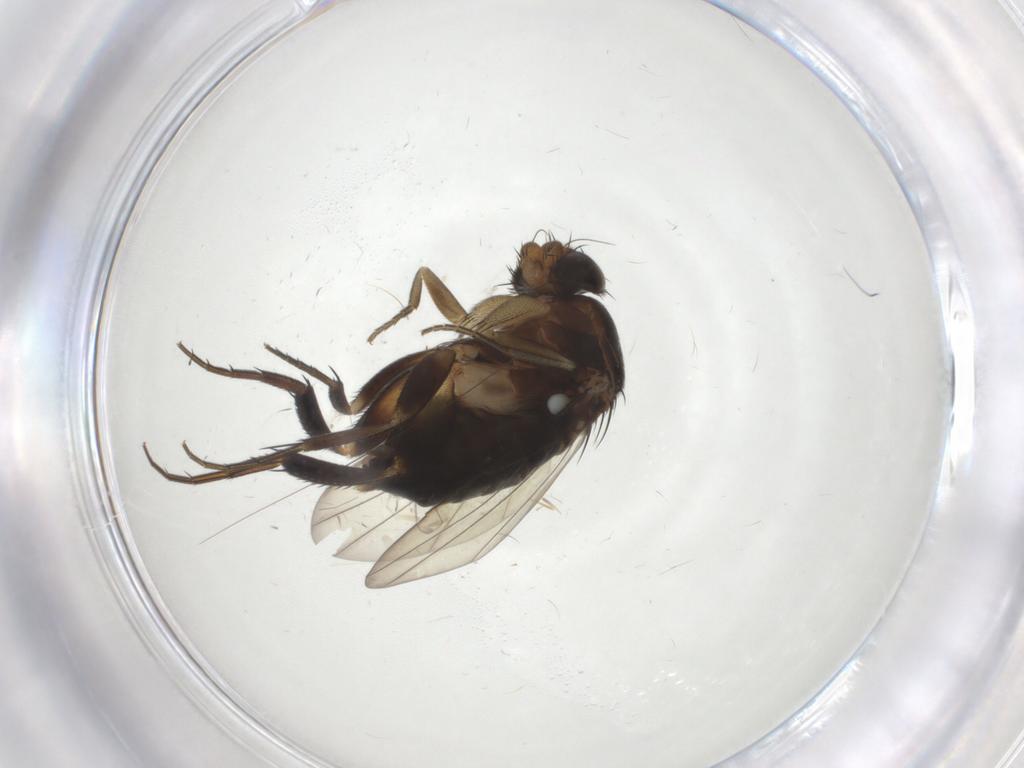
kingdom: Animalia
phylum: Arthropoda
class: Insecta
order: Diptera
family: Phoridae
